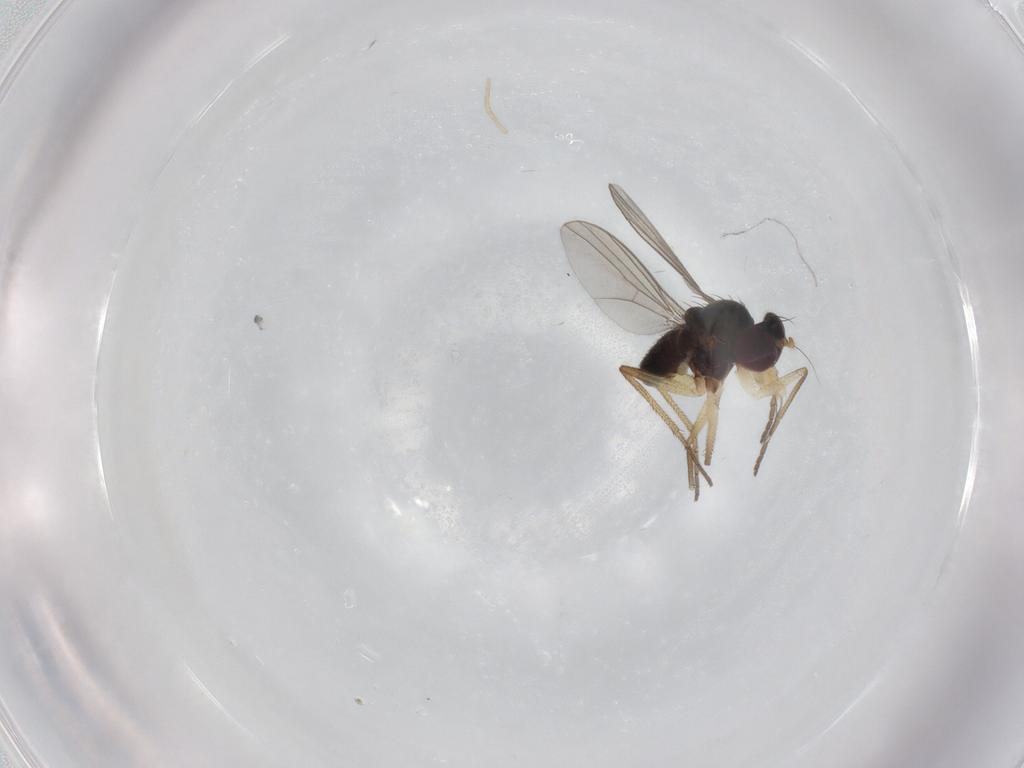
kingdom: Animalia
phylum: Arthropoda
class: Insecta
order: Diptera
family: Dolichopodidae
